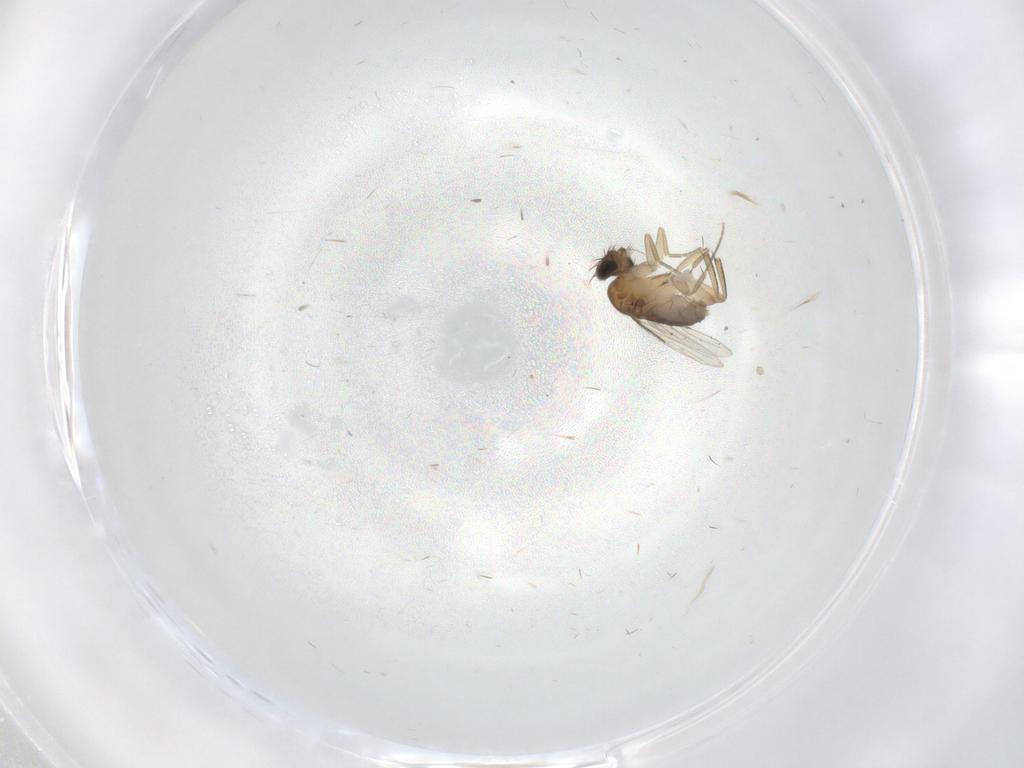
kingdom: Animalia
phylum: Arthropoda
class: Insecta
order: Diptera
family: Phoridae
